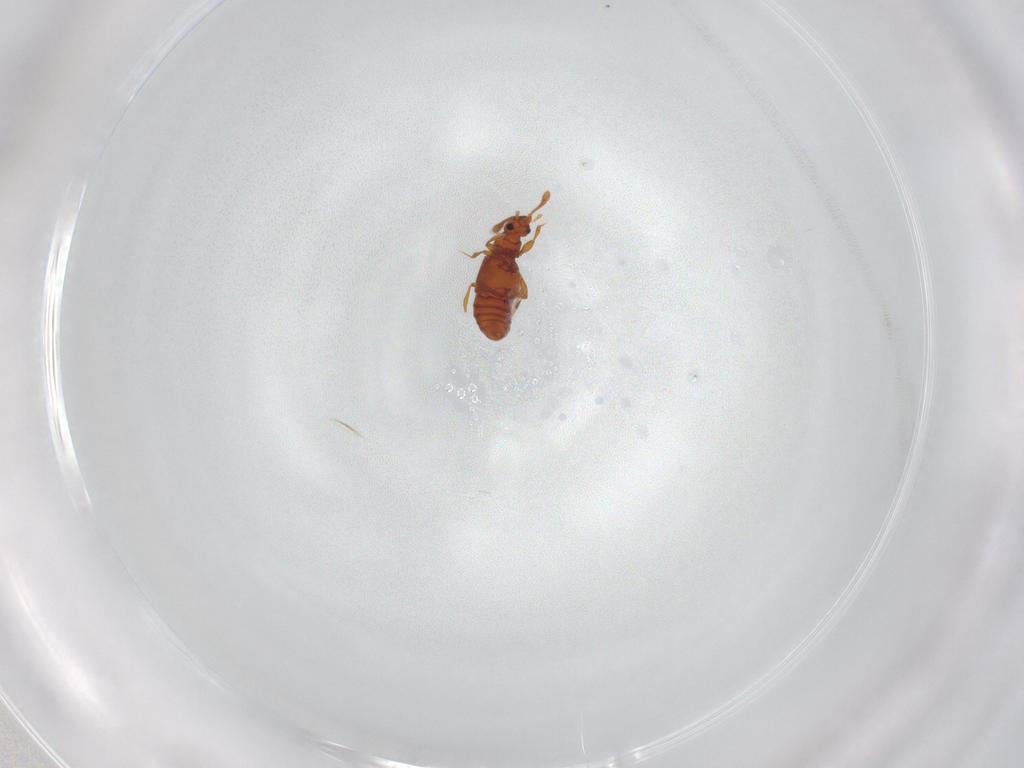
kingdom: Animalia
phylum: Arthropoda
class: Insecta
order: Coleoptera
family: Staphylinidae
